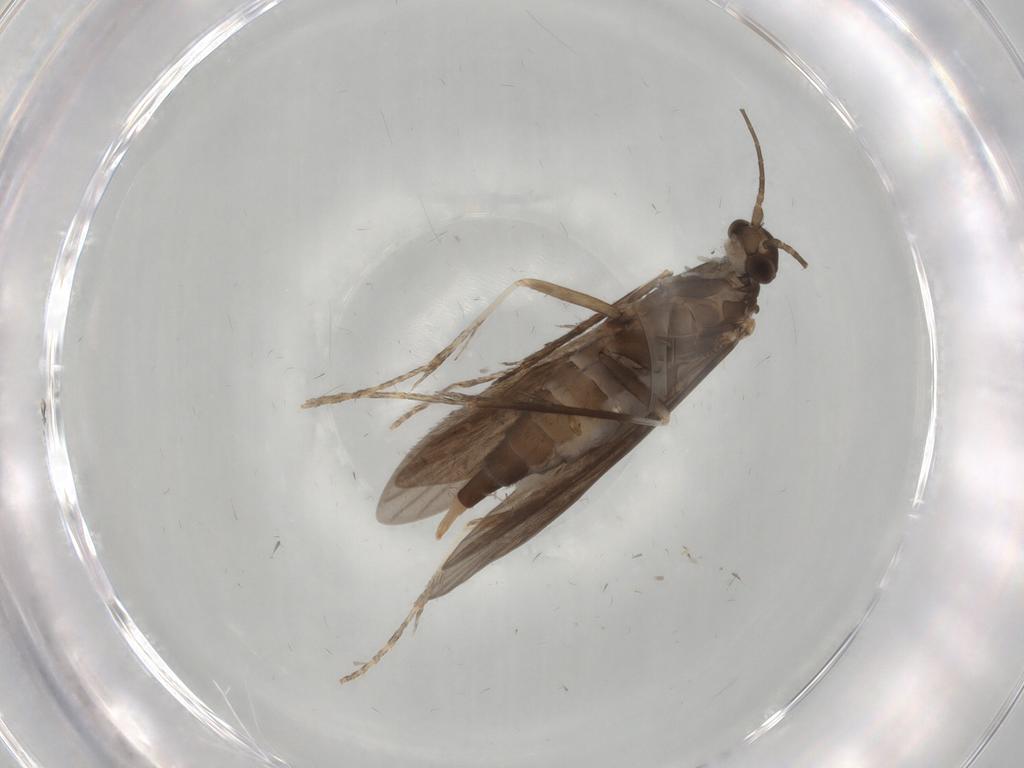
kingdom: Animalia
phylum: Arthropoda
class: Insecta
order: Trichoptera
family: Xiphocentronidae
